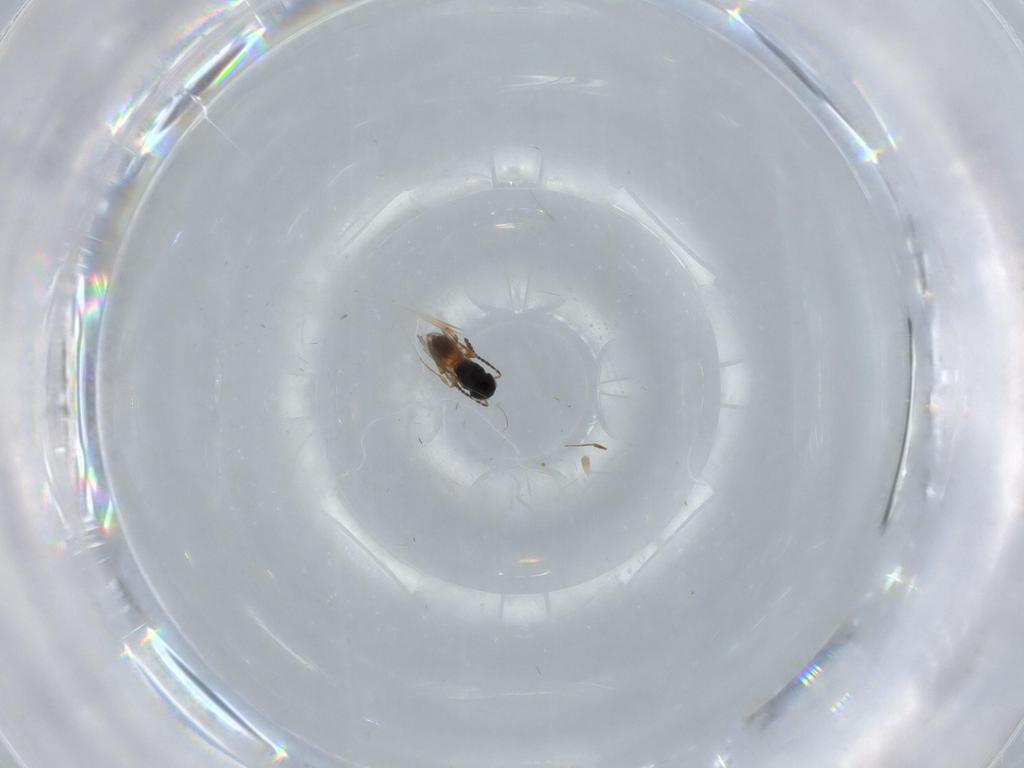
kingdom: Animalia
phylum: Arthropoda
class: Insecta
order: Hymenoptera
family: Scelionidae
